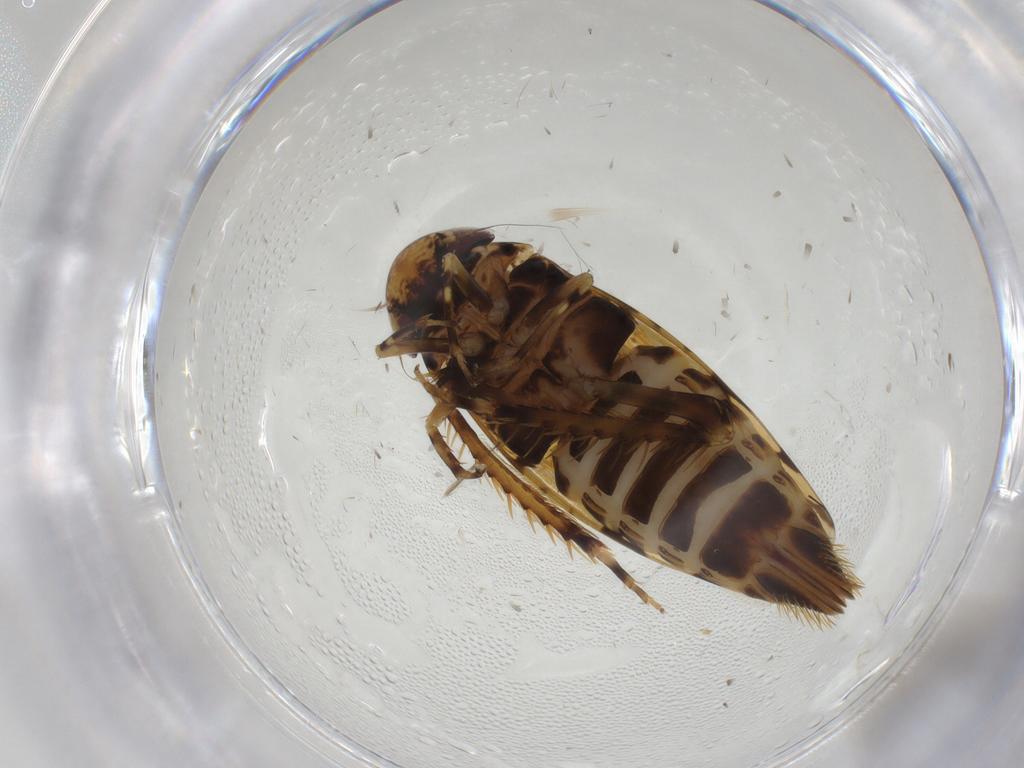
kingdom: Animalia
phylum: Arthropoda
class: Insecta
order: Hemiptera
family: Cicadellidae
